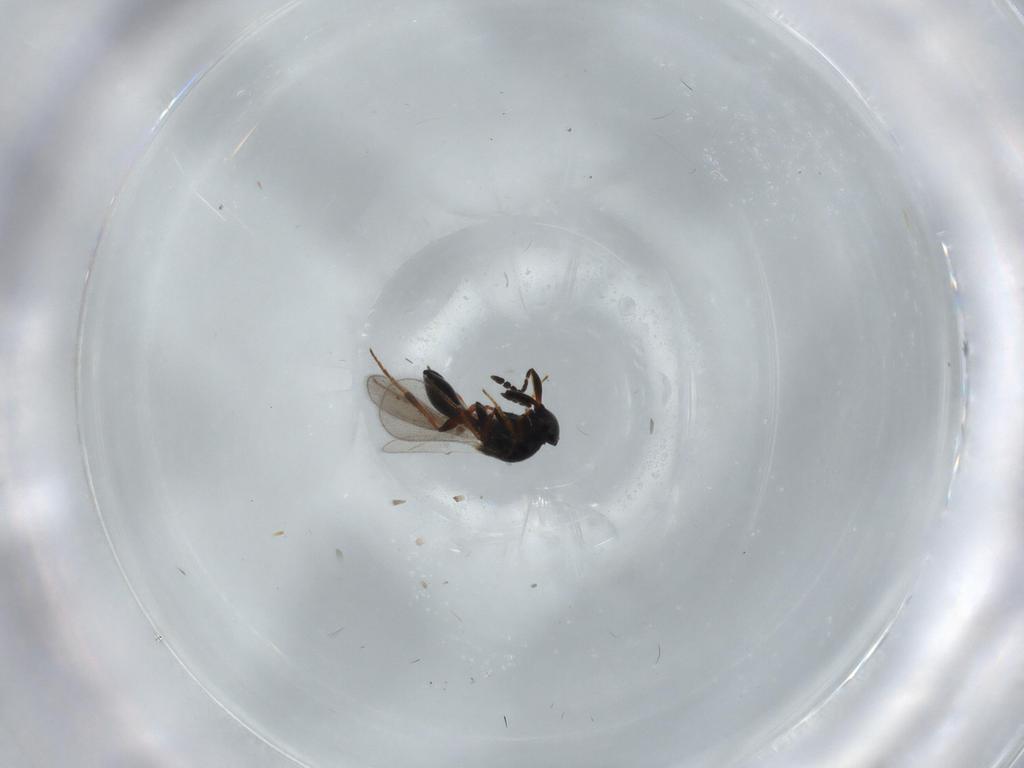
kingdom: Animalia
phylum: Arthropoda
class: Insecta
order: Hymenoptera
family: Platygastridae
